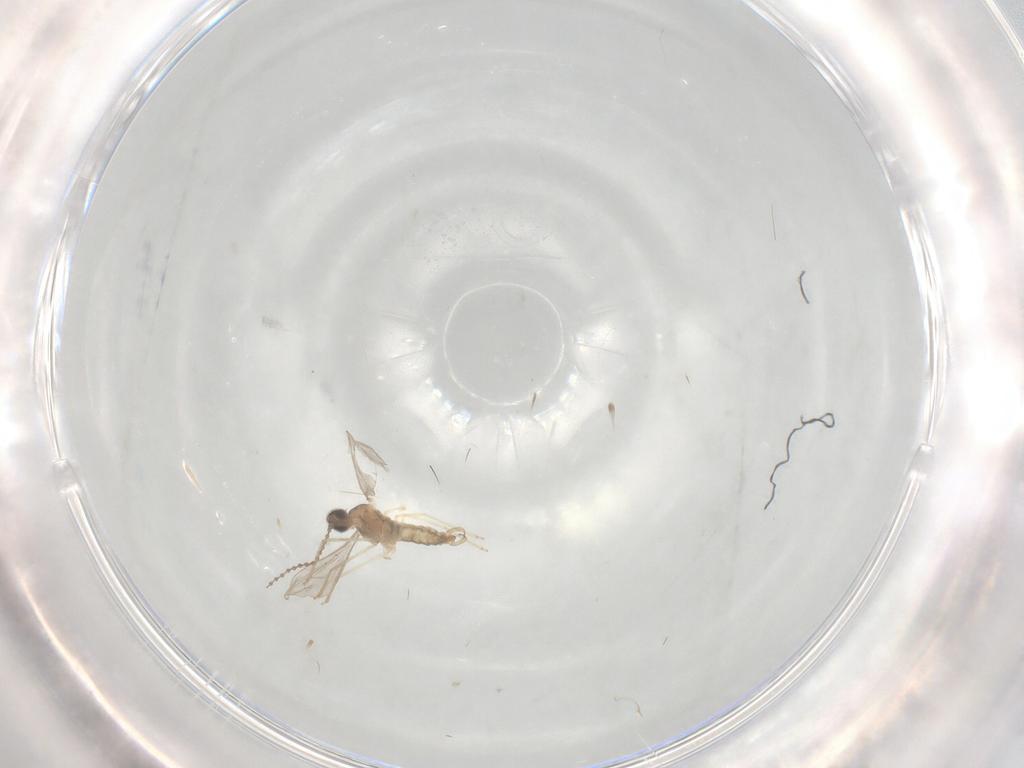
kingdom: Animalia
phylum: Arthropoda
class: Insecta
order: Diptera
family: Cecidomyiidae
